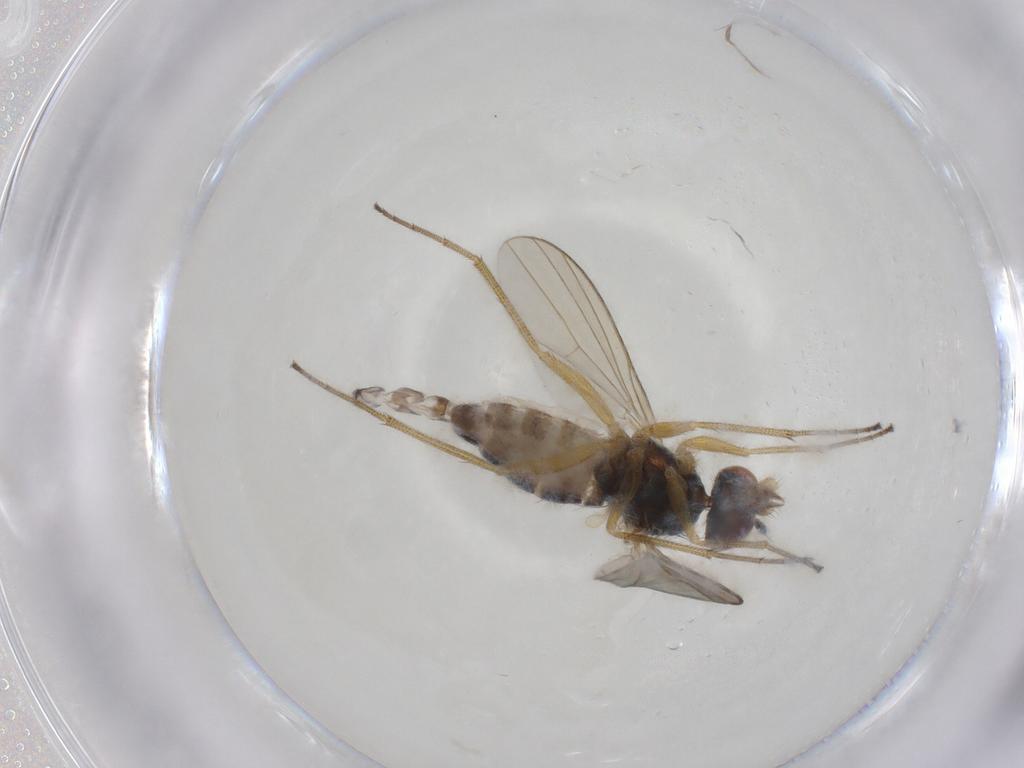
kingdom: Animalia
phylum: Arthropoda
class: Insecta
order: Diptera
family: Dolichopodidae
